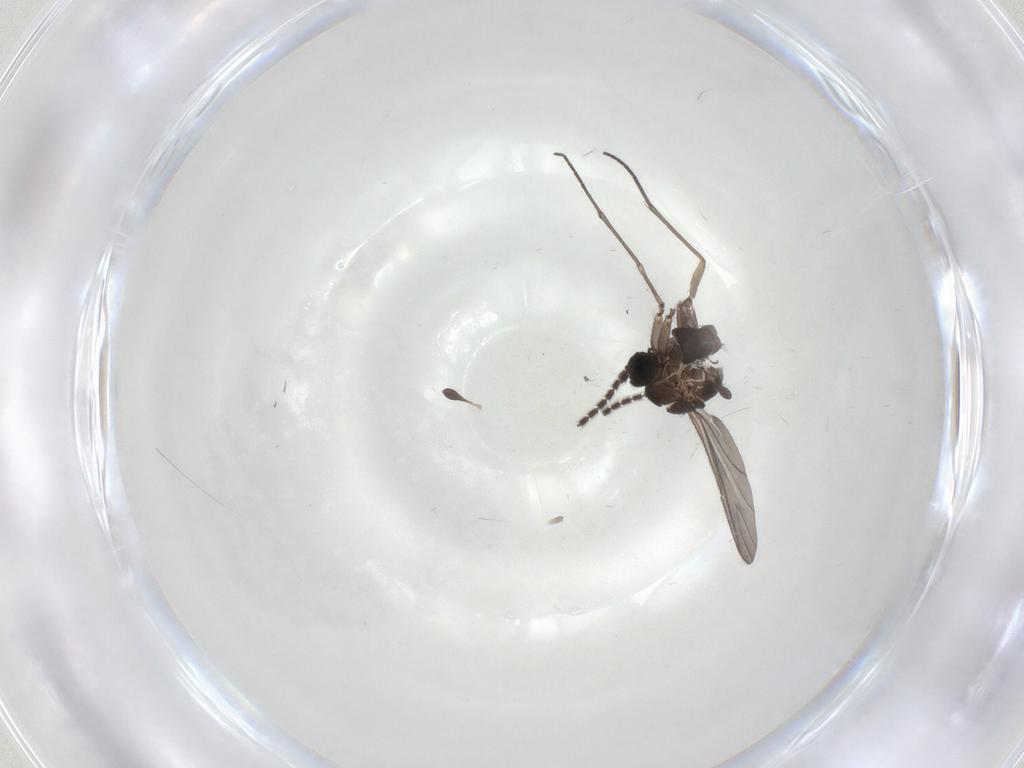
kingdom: Animalia
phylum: Arthropoda
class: Insecta
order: Diptera
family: Sciaridae
